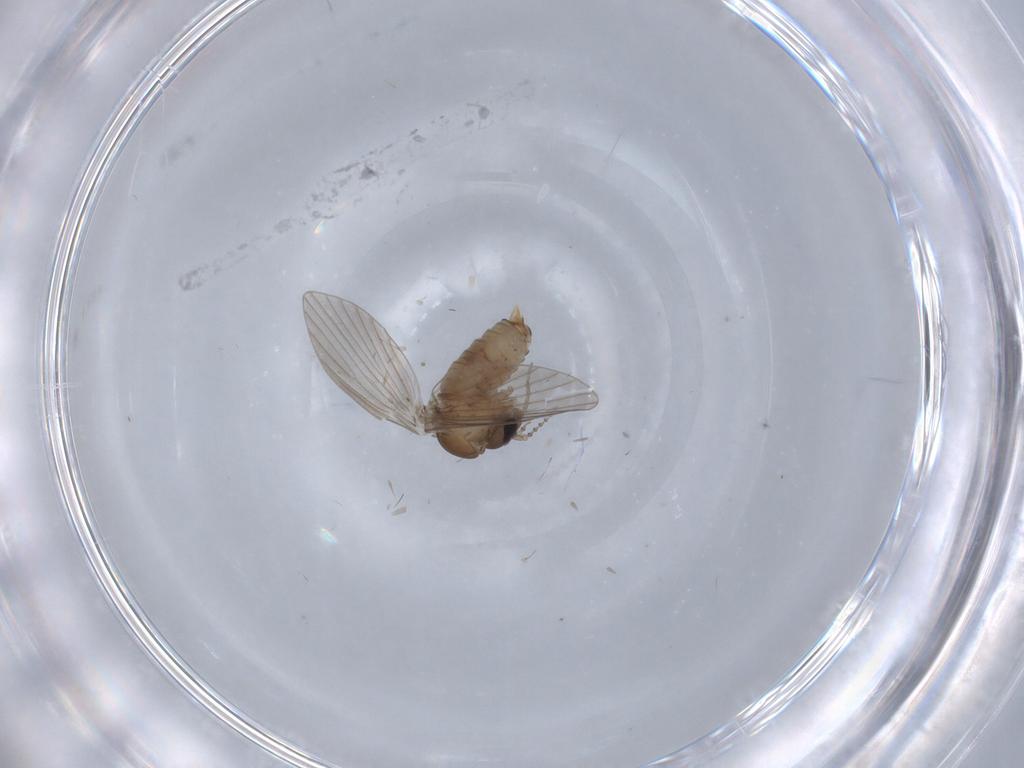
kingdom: Animalia
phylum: Arthropoda
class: Insecta
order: Diptera
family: Psychodidae
